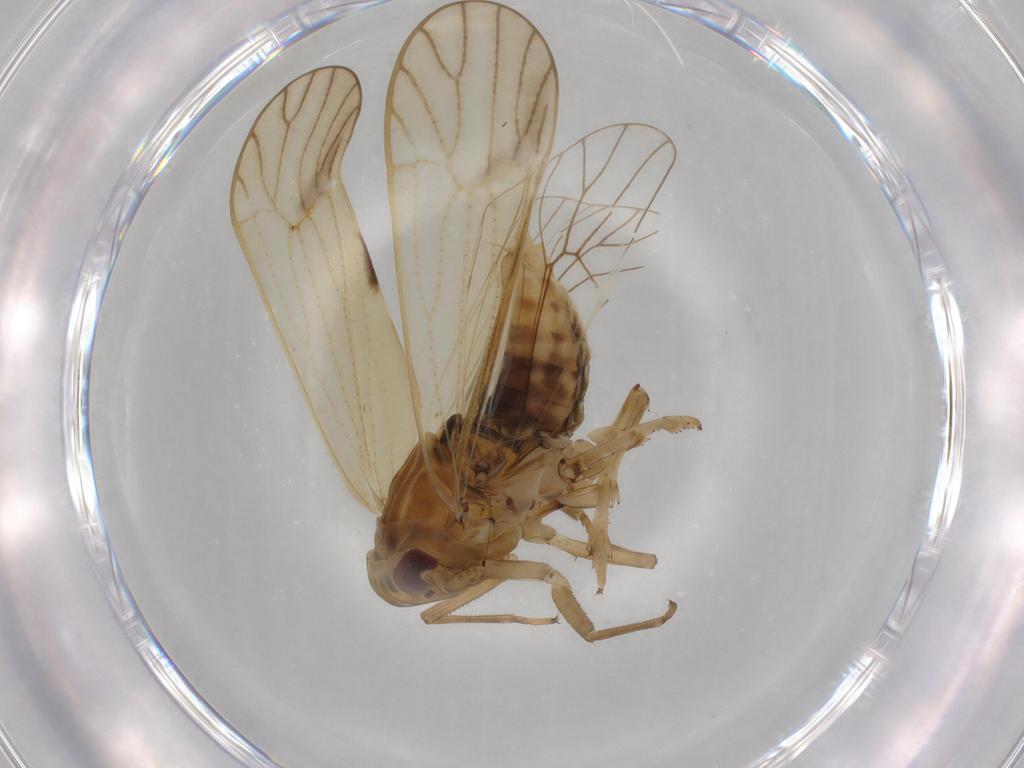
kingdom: Animalia
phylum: Arthropoda
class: Insecta
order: Hemiptera
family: Delphacidae
